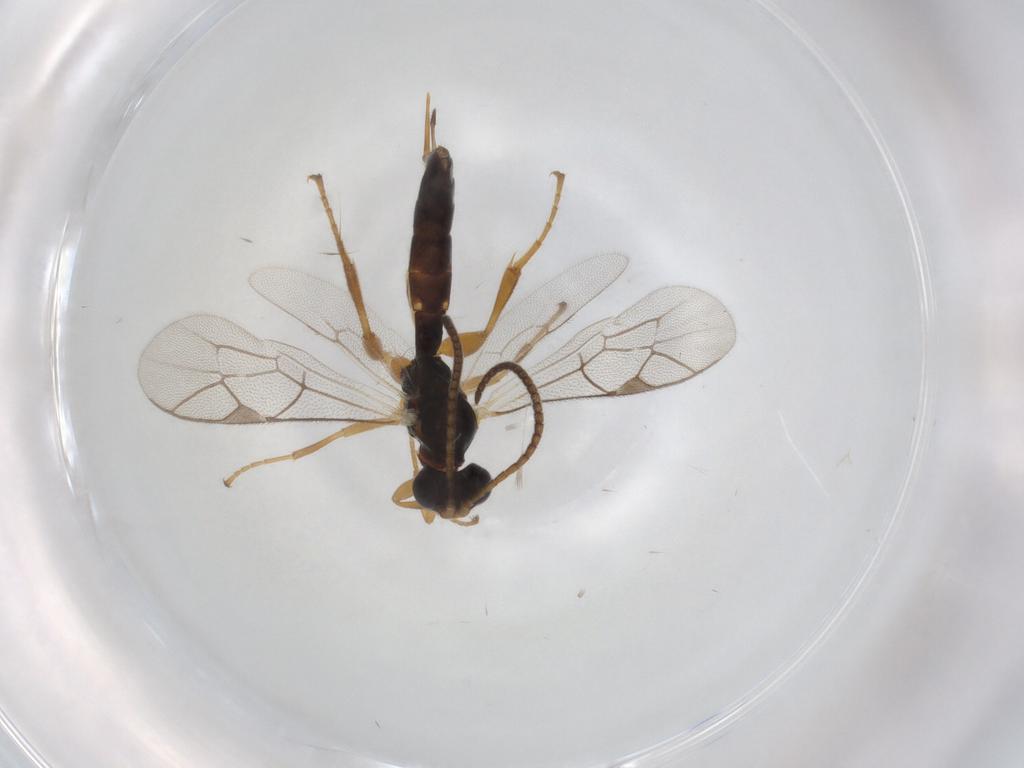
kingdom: Animalia
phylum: Arthropoda
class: Insecta
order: Hymenoptera
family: Ichneumonidae
